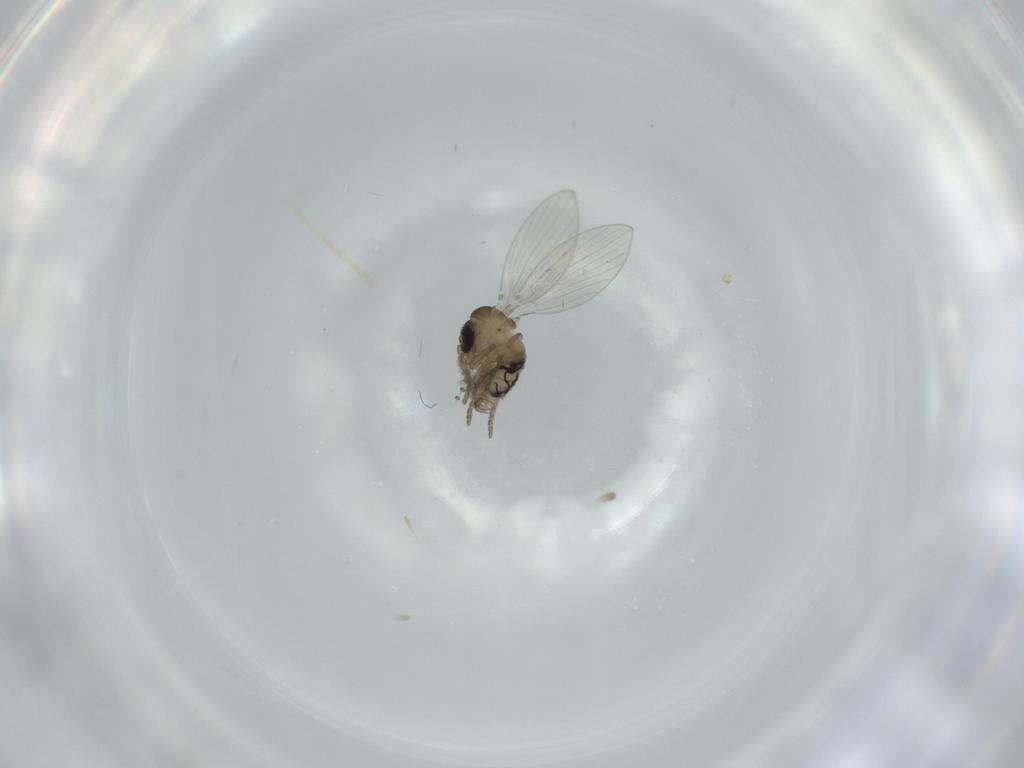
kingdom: Animalia
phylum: Arthropoda
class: Insecta
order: Diptera
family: Psychodidae
